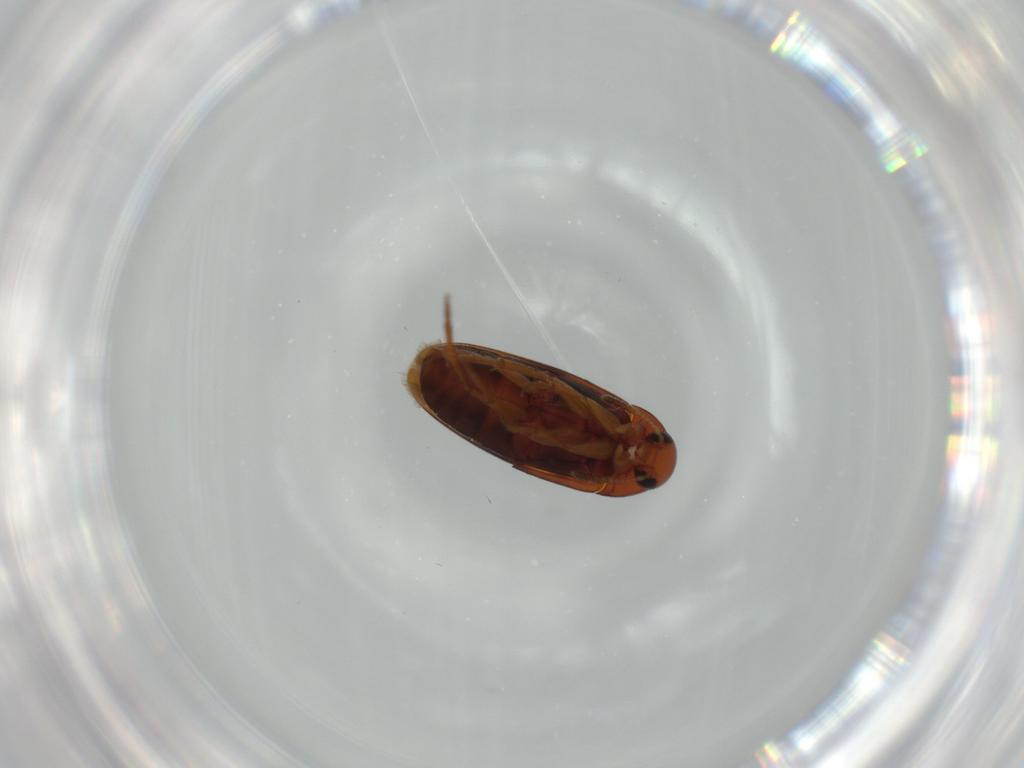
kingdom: Animalia
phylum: Arthropoda
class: Insecta
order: Coleoptera
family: Scraptiidae
